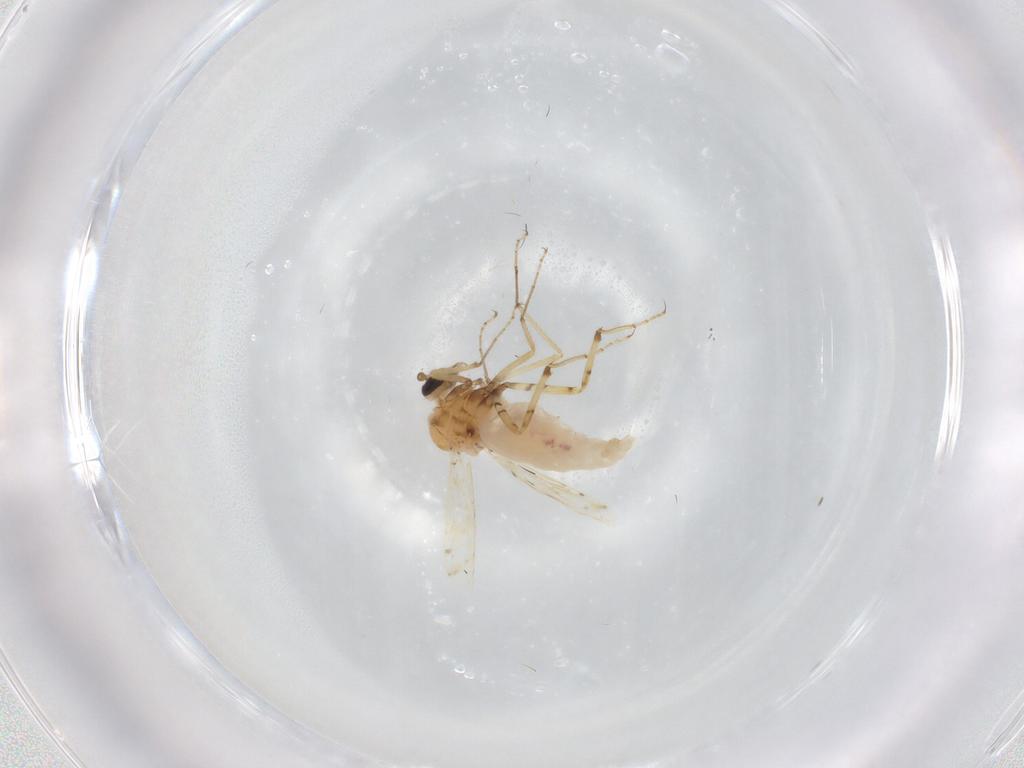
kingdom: Animalia
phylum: Arthropoda
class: Insecta
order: Diptera
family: Ceratopogonidae
